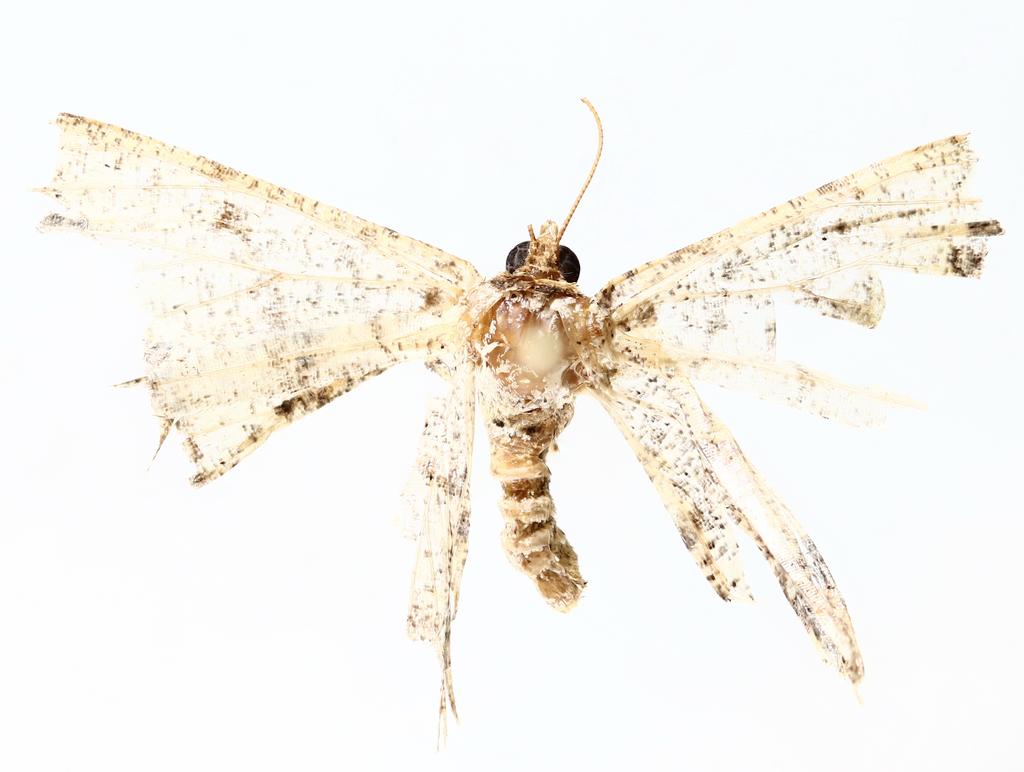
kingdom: Animalia
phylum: Arthropoda
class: Insecta
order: Diptera
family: Drosophilidae
